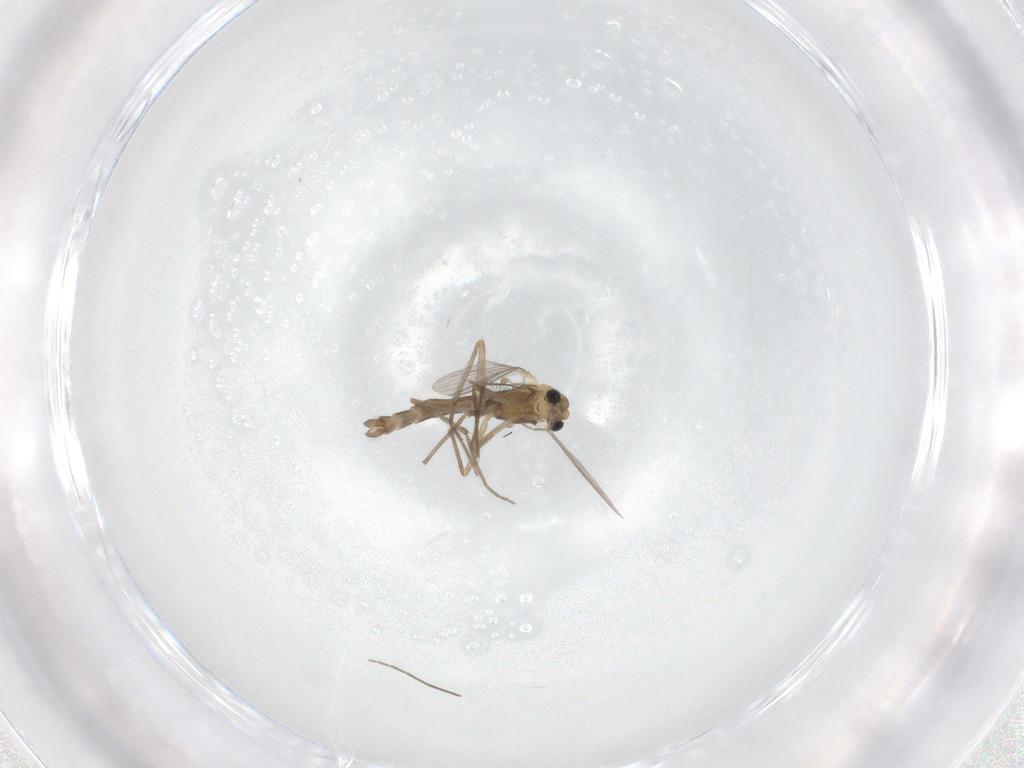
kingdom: Animalia
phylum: Arthropoda
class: Insecta
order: Diptera
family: Chironomidae
